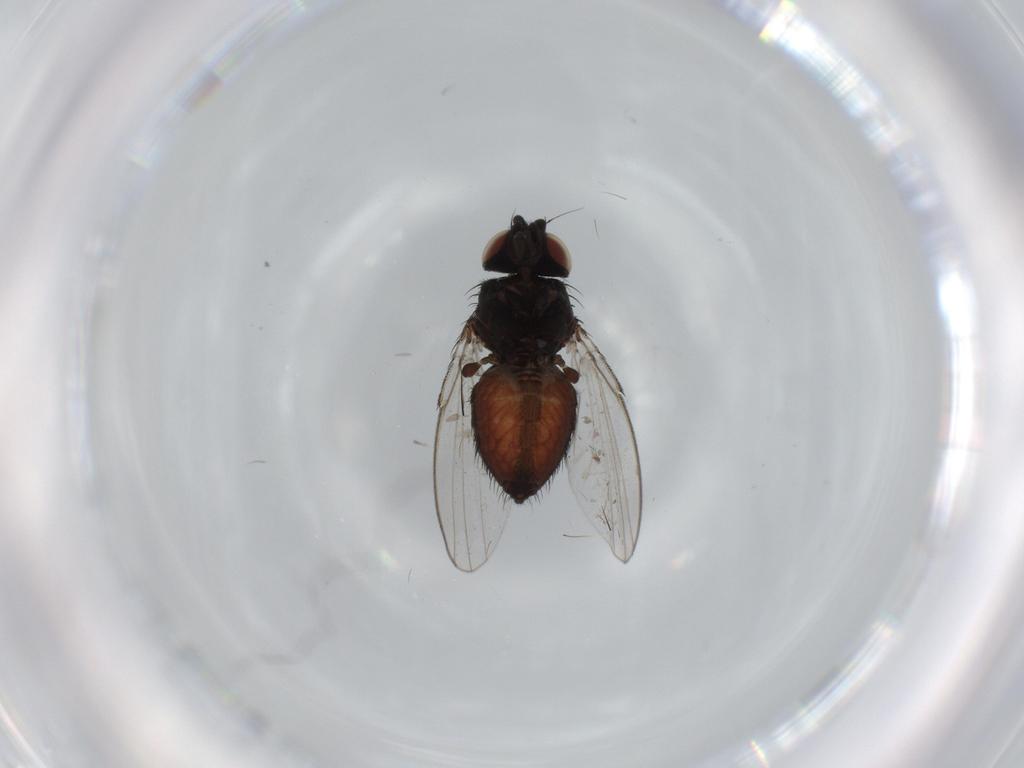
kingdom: Animalia
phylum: Arthropoda
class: Insecta
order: Diptera
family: Milichiidae
